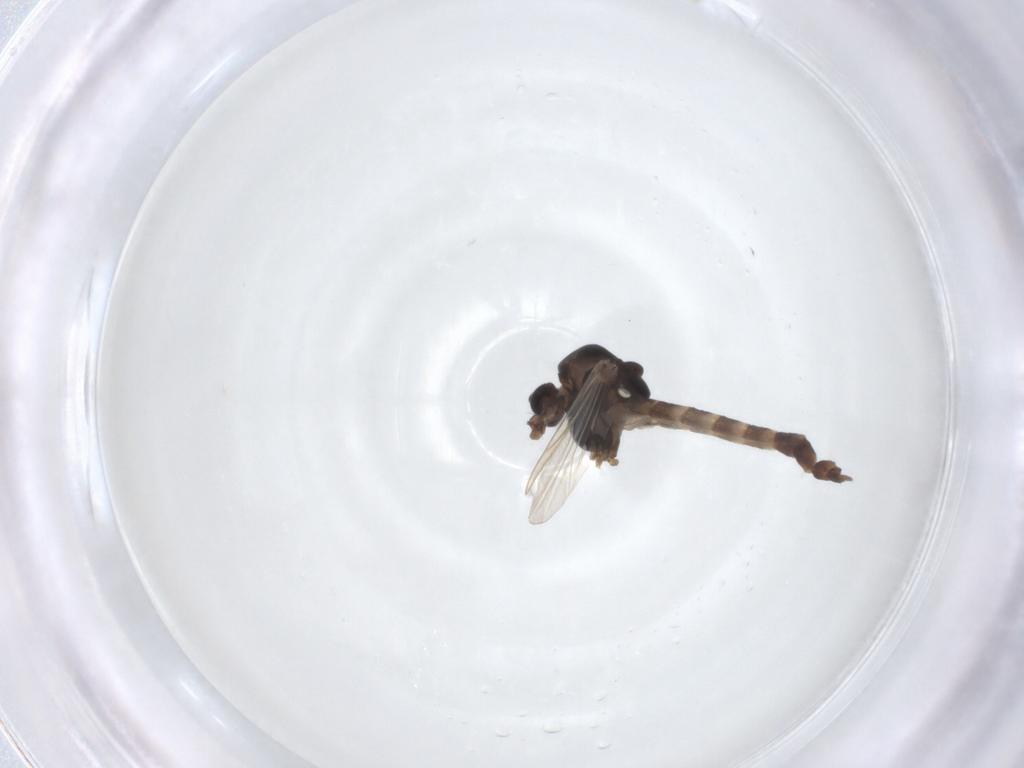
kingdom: Animalia
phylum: Arthropoda
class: Insecta
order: Diptera
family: Chironomidae
